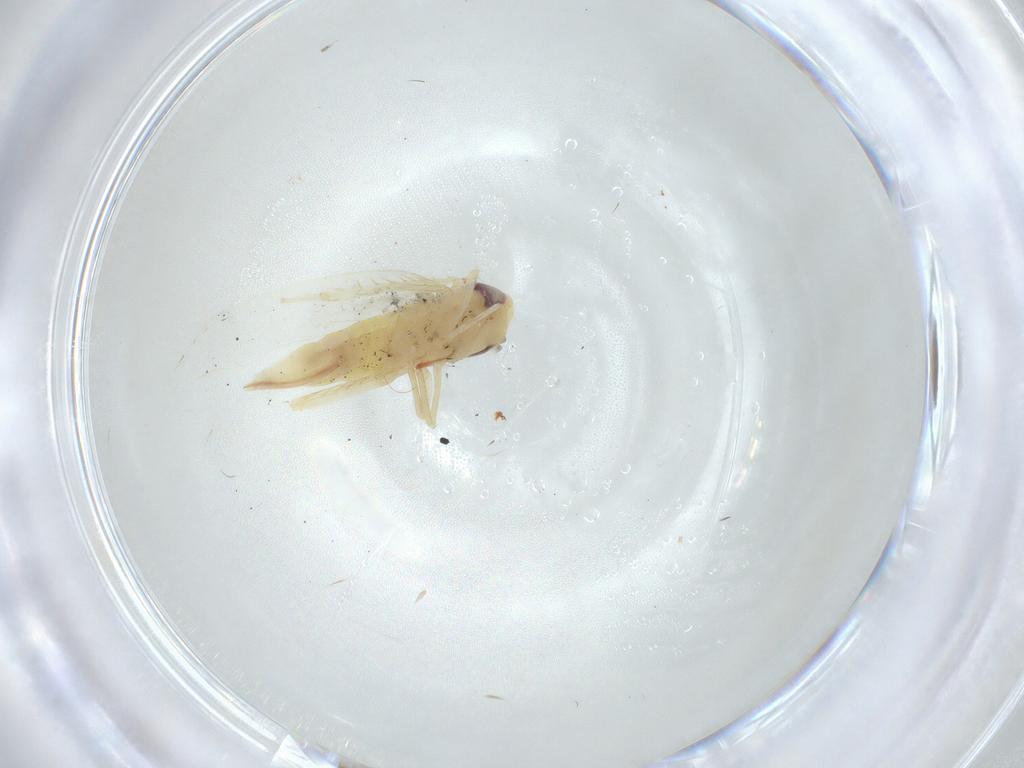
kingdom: Animalia
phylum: Arthropoda
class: Insecta
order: Hemiptera
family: Cicadellidae
